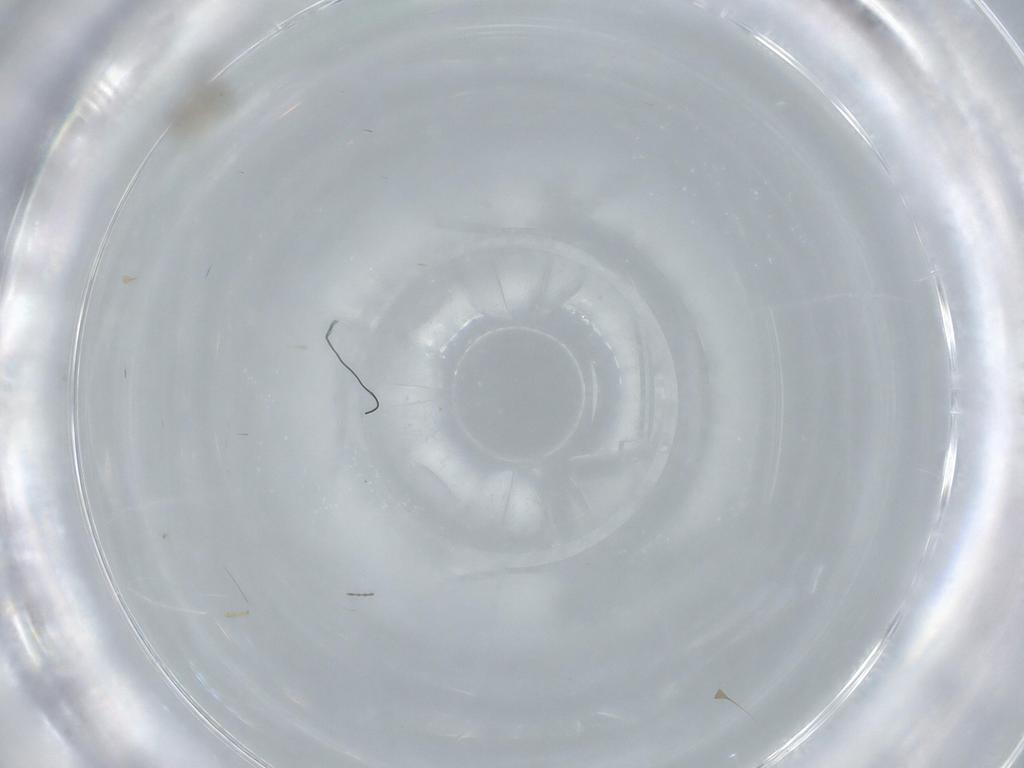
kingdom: Animalia
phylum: Arthropoda
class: Insecta
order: Diptera
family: Cecidomyiidae
